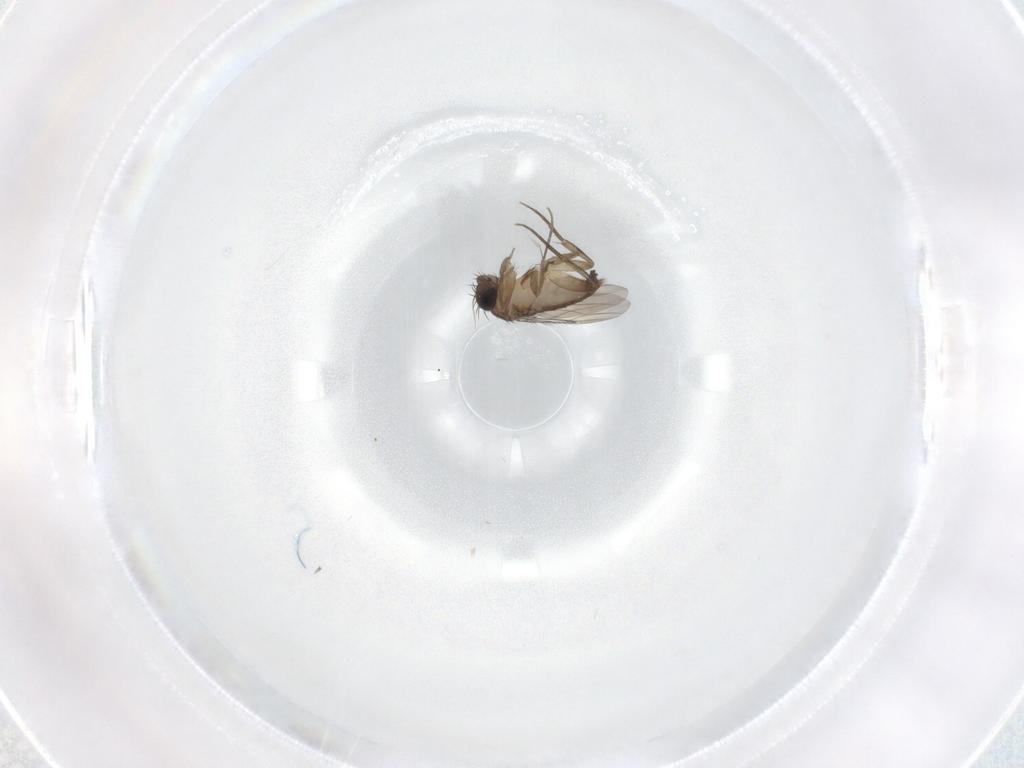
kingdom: Animalia
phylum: Arthropoda
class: Insecta
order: Diptera
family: Phoridae
